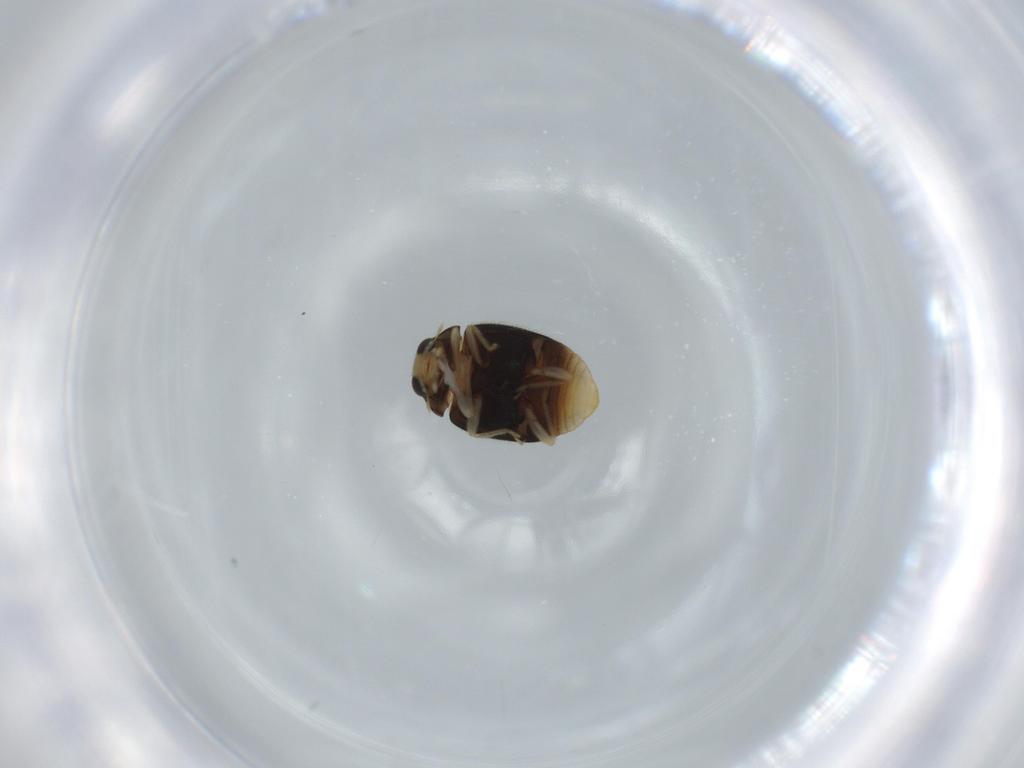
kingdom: Animalia
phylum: Arthropoda
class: Insecta
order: Coleoptera
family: Coccinellidae
